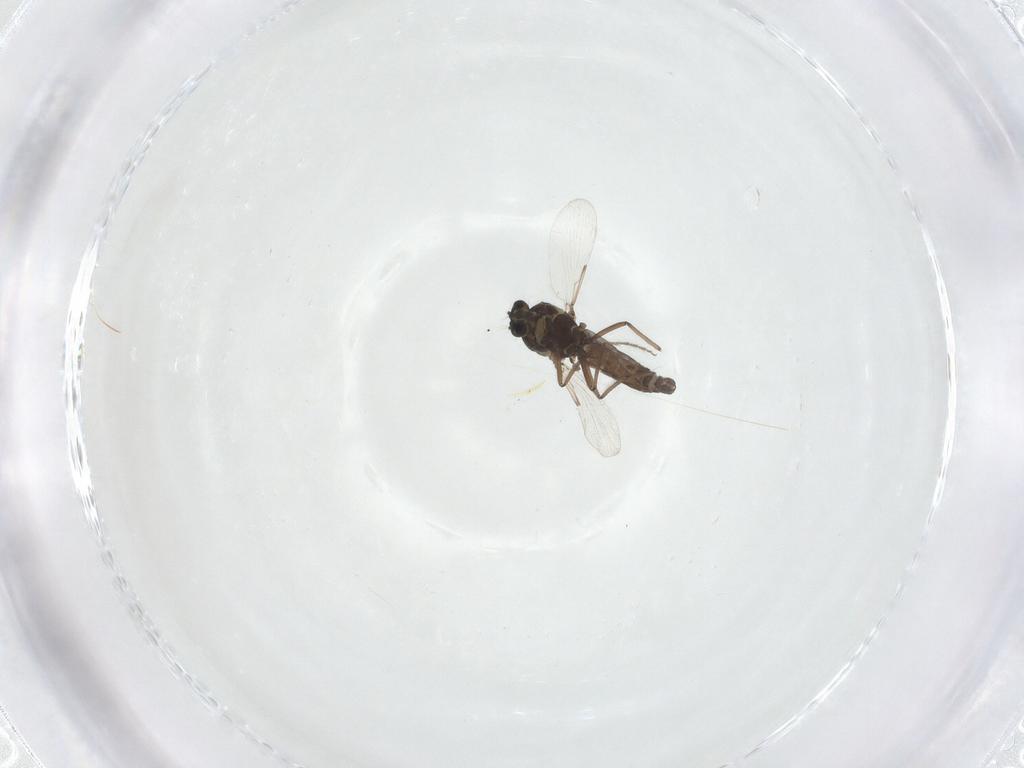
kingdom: Animalia
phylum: Arthropoda
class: Insecta
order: Diptera
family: Ceratopogonidae
